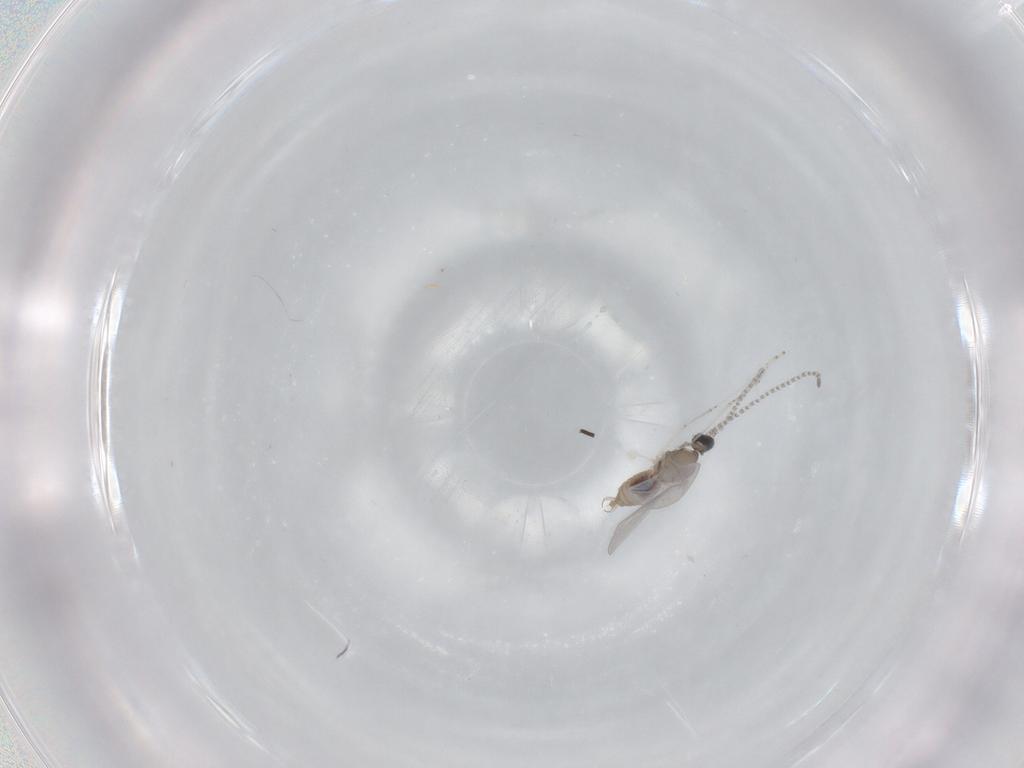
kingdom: Animalia
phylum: Arthropoda
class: Insecta
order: Diptera
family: Cecidomyiidae
